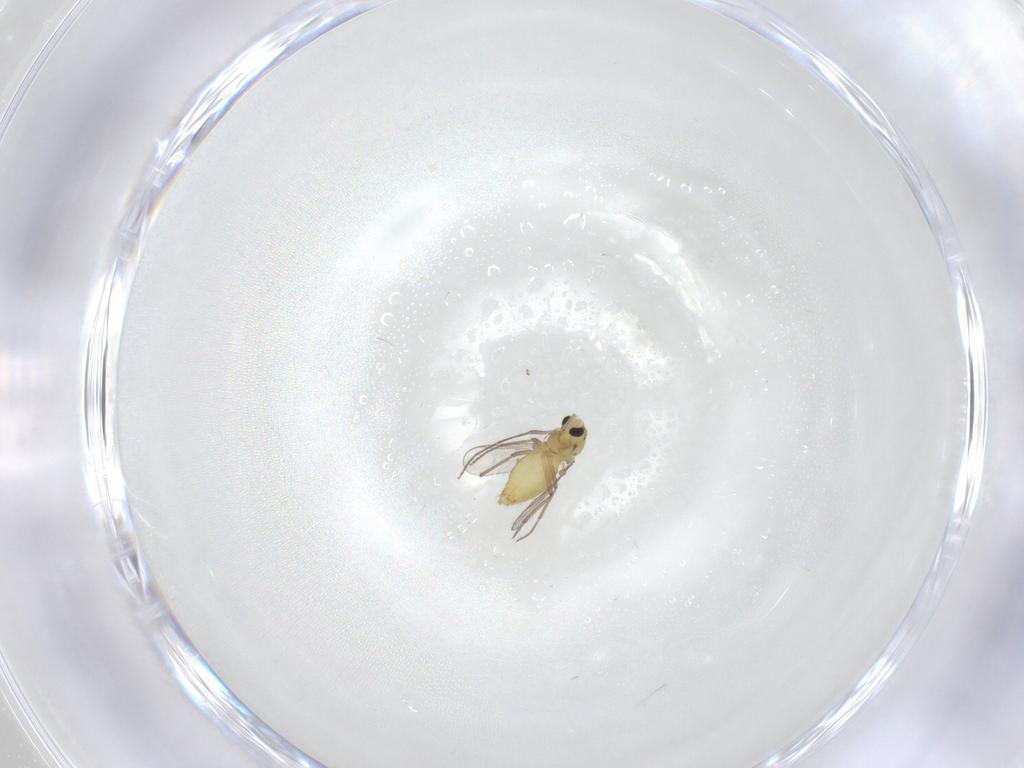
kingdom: Animalia
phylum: Arthropoda
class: Insecta
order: Diptera
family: Chironomidae
